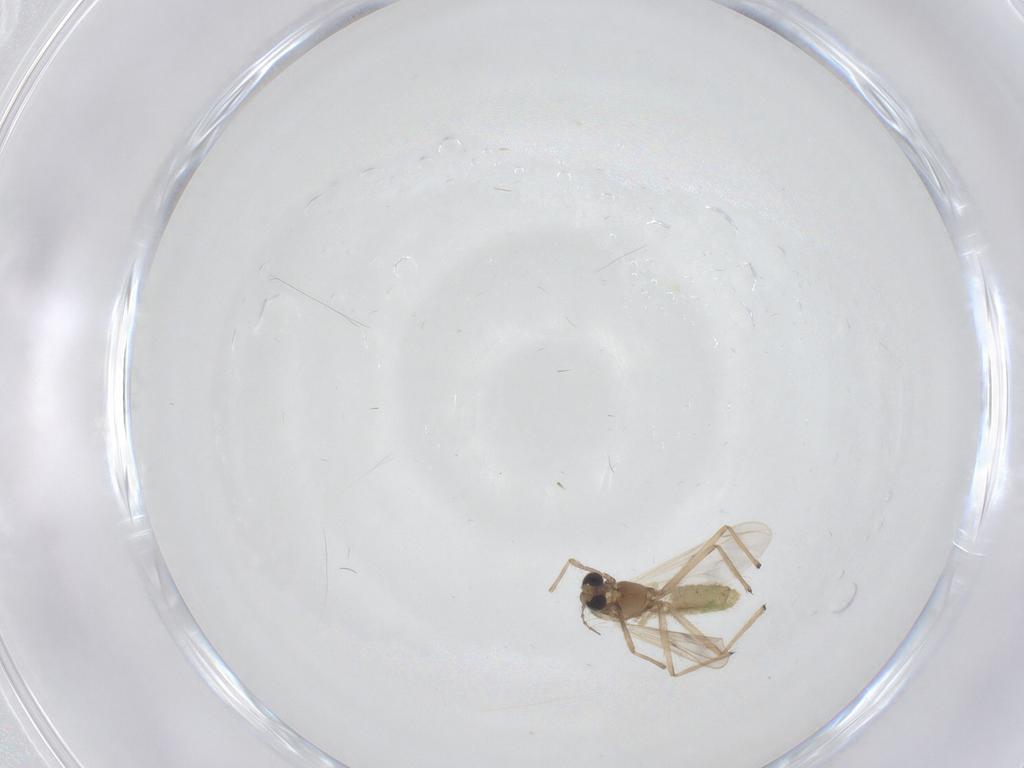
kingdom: Animalia
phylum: Arthropoda
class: Insecta
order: Diptera
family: Chironomidae
